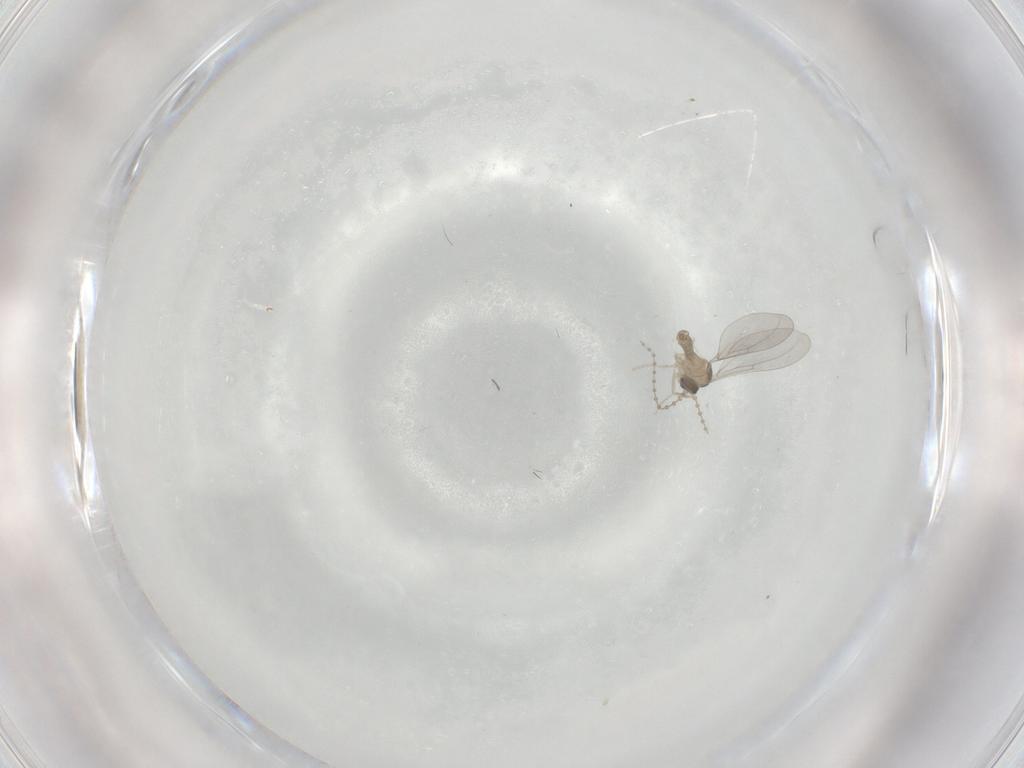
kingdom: Animalia
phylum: Arthropoda
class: Insecta
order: Diptera
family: Cecidomyiidae
